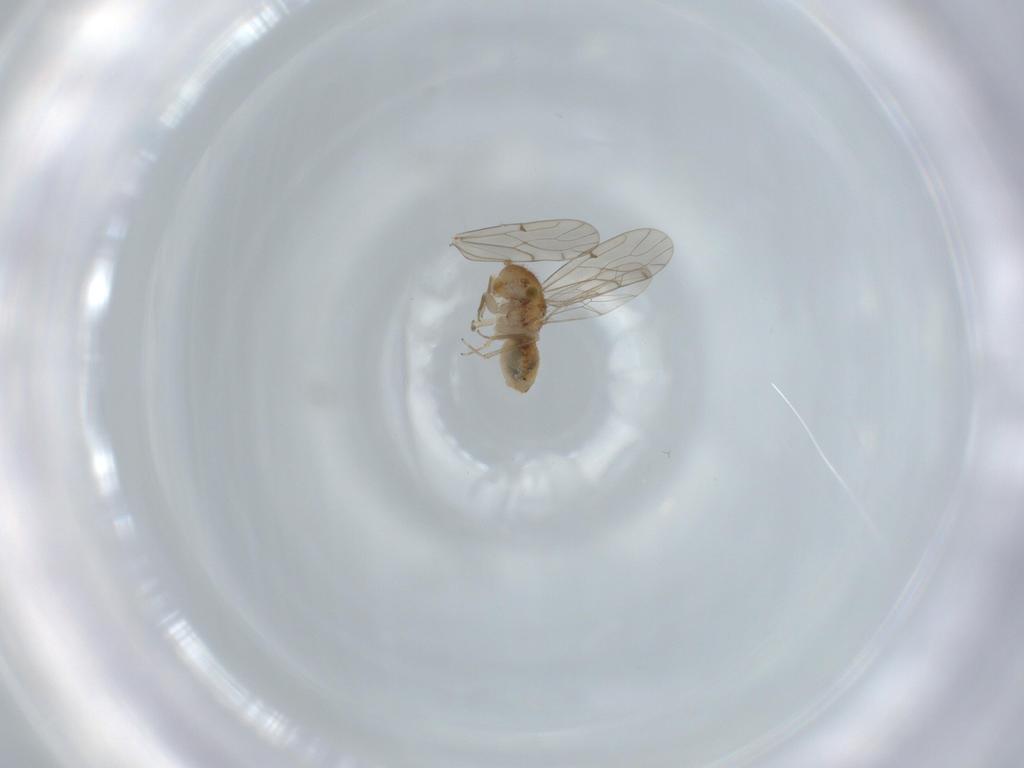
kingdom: Animalia
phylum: Arthropoda
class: Insecta
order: Psocodea
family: Ectopsocidae
